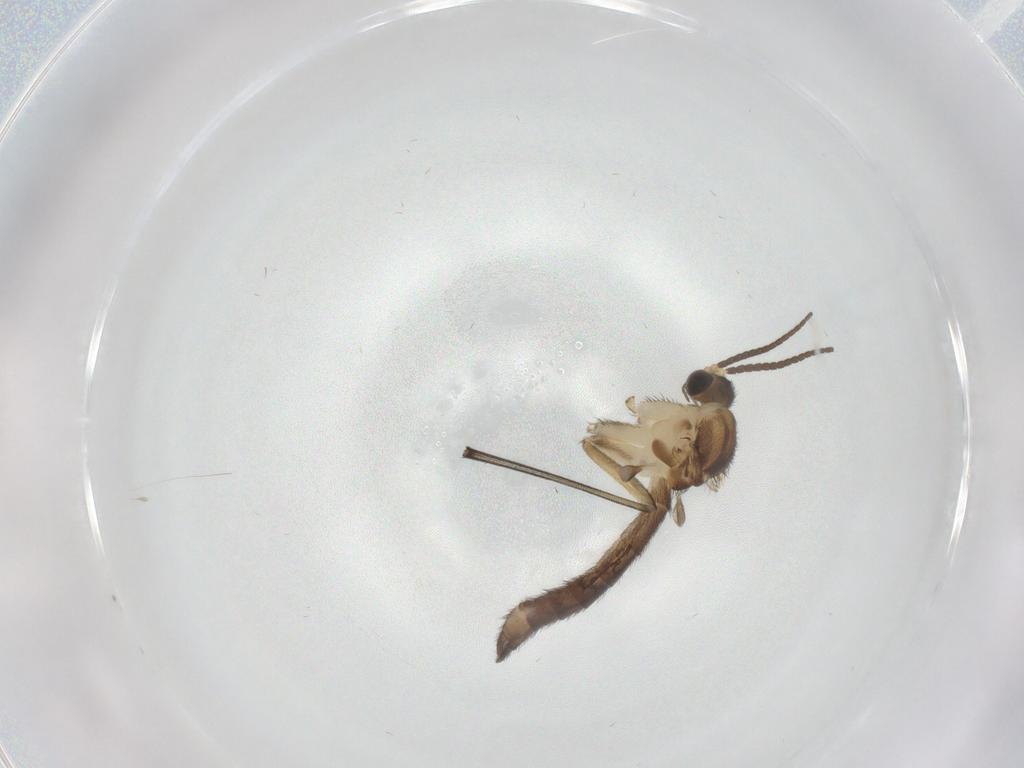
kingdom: Animalia
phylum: Arthropoda
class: Insecta
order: Diptera
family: Keroplatidae
